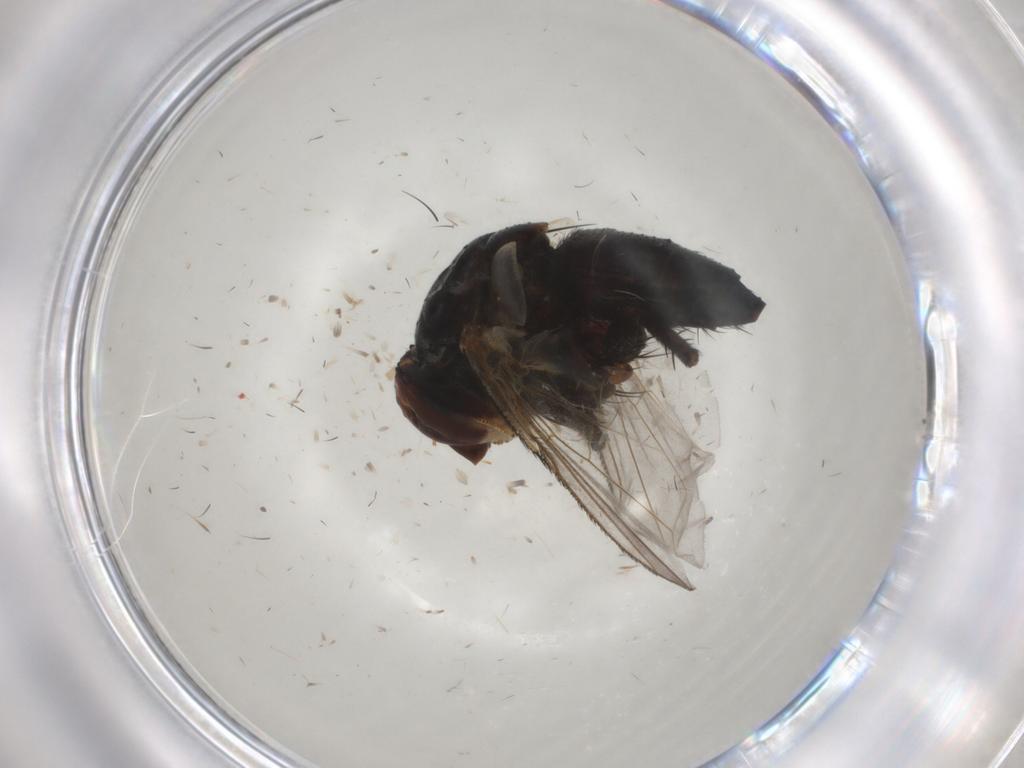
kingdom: Animalia
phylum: Arthropoda
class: Insecta
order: Diptera
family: Tachinidae
